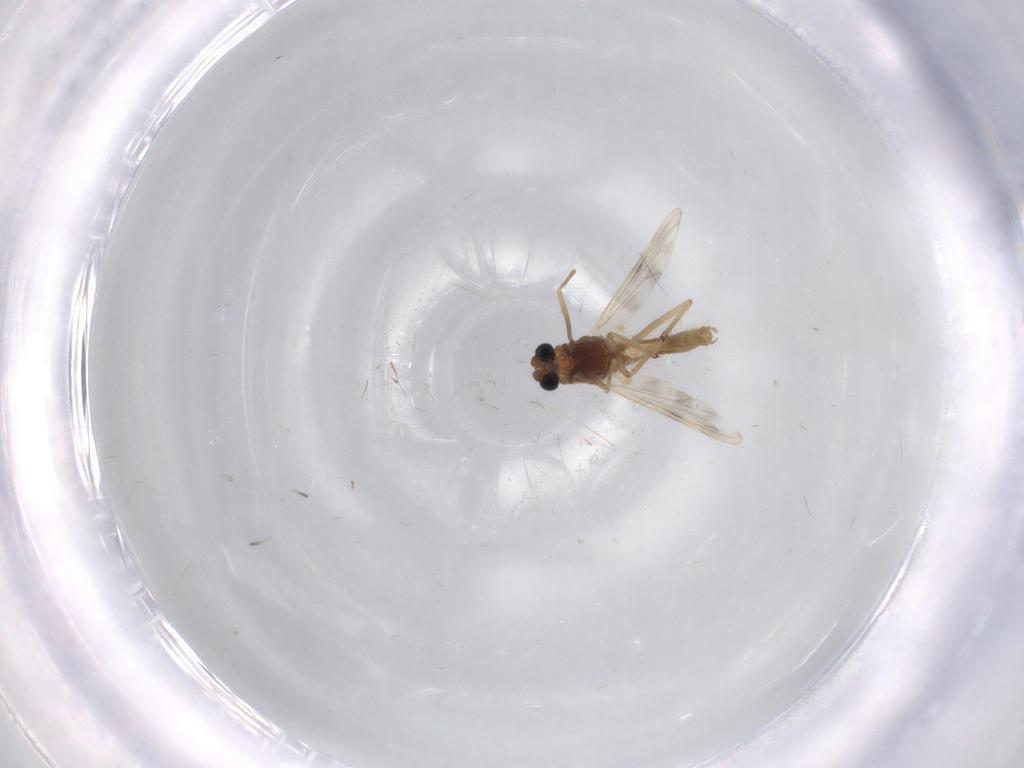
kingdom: Animalia
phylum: Arthropoda
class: Insecta
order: Diptera
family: Chironomidae
